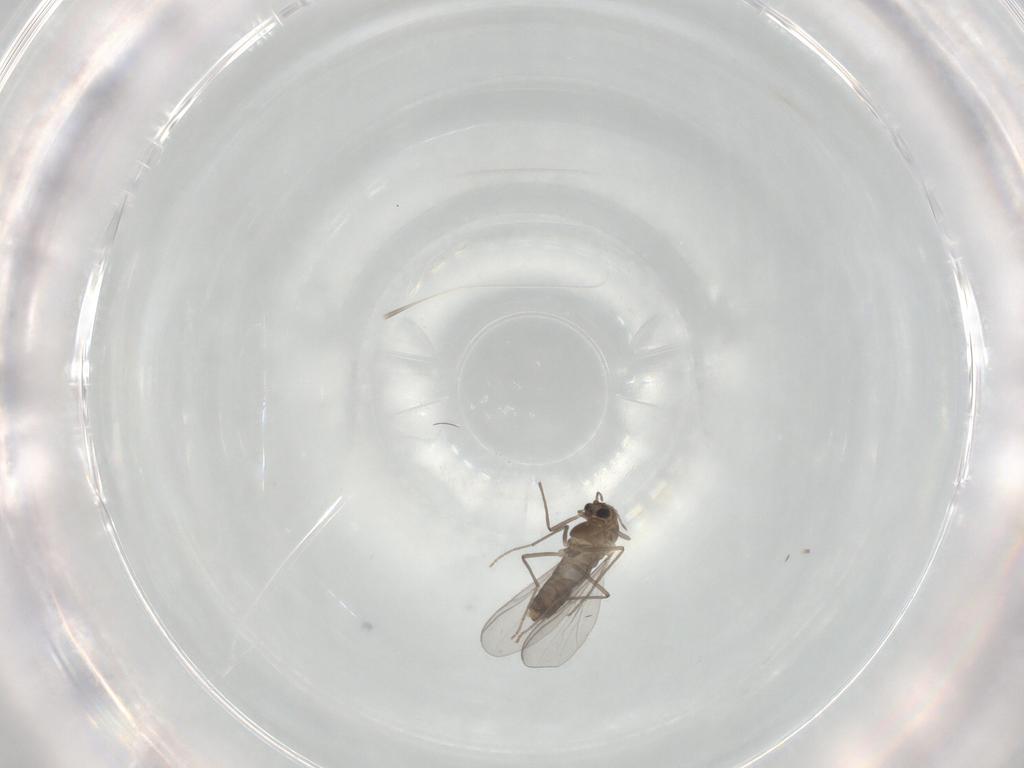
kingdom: Animalia
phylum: Arthropoda
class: Insecta
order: Diptera
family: Chironomidae
